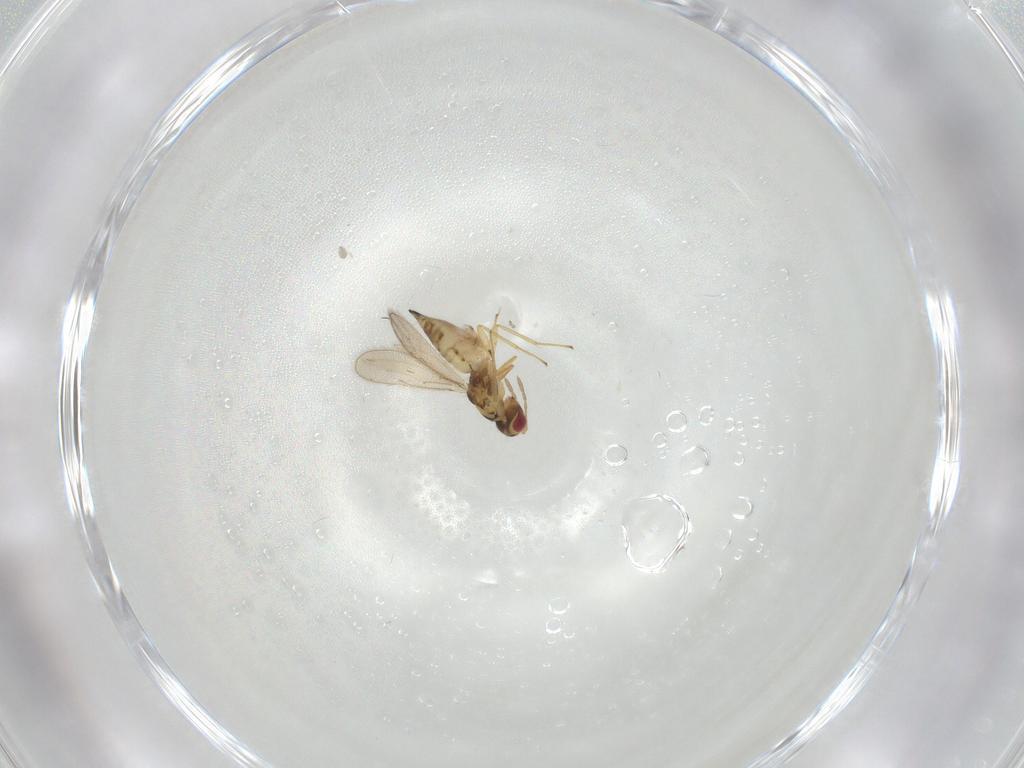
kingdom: Animalia
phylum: Arthropoda
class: Insecta
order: Hymenoptera
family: Eulophidae
